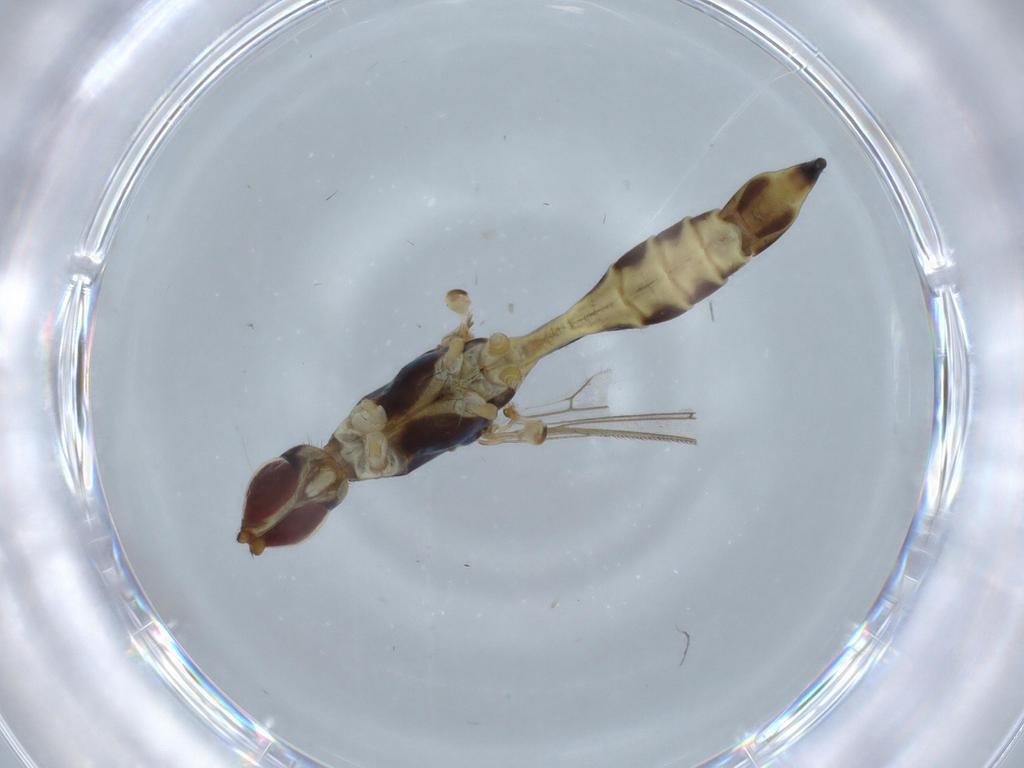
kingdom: Animalia
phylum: Arthropoda
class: Insecta
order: Diptera
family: Micropezidae
